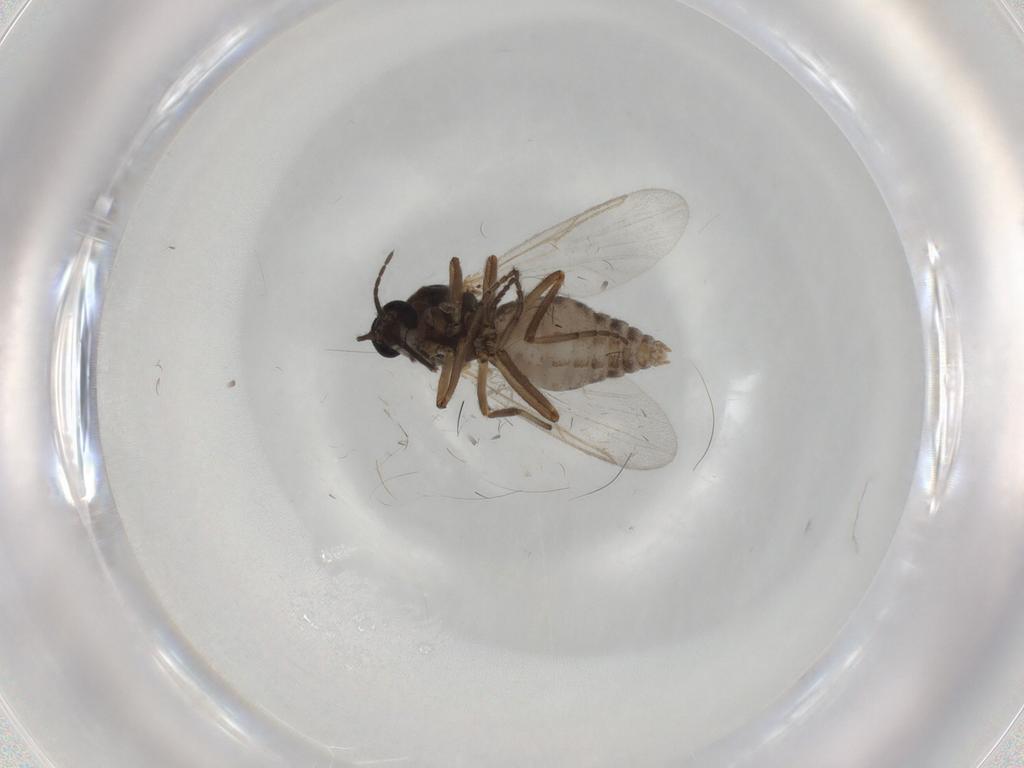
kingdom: Animalia
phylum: Arthropoda
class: Insecta
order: Diptera
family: Ceratopogonidae
